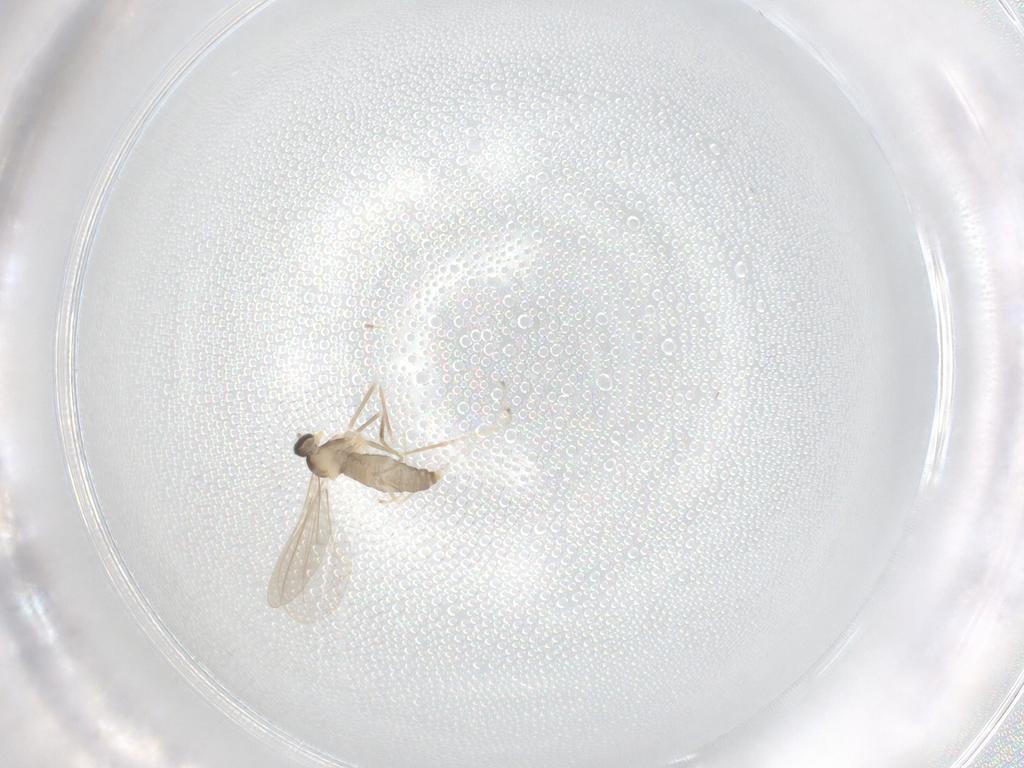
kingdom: Animalia
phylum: Arthropoda
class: Insecta
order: Diptera
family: Cecidomyiidae
